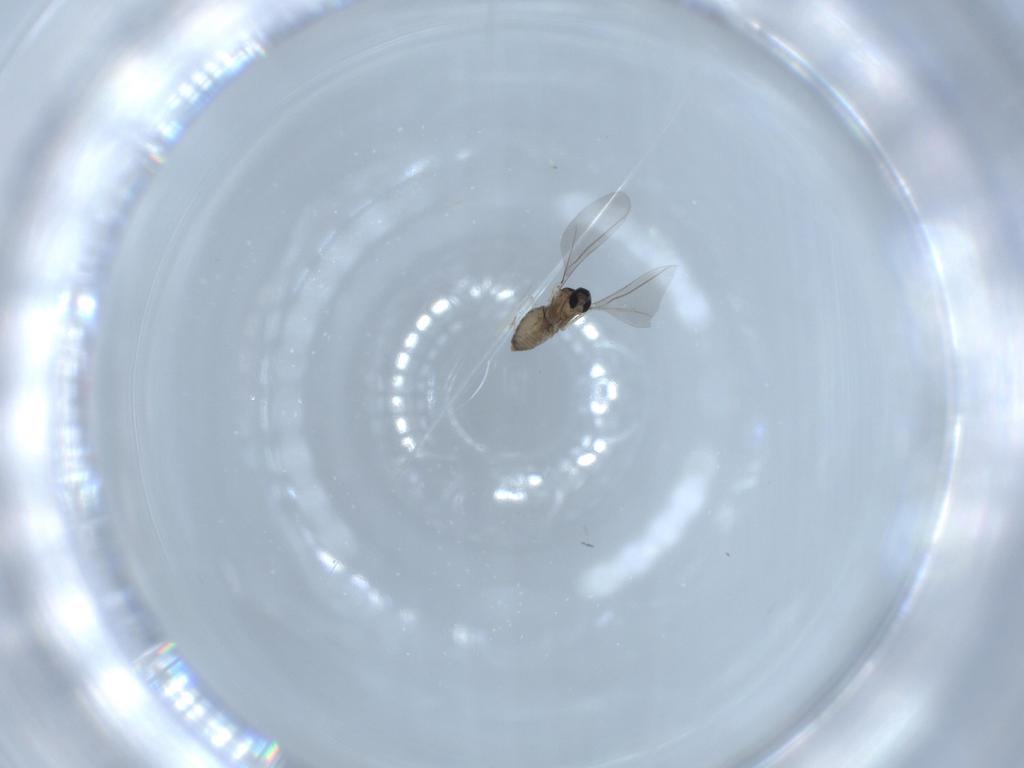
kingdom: Animalia
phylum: Arthropoda
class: Insecta
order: Diptera
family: Cecidomyiidae
